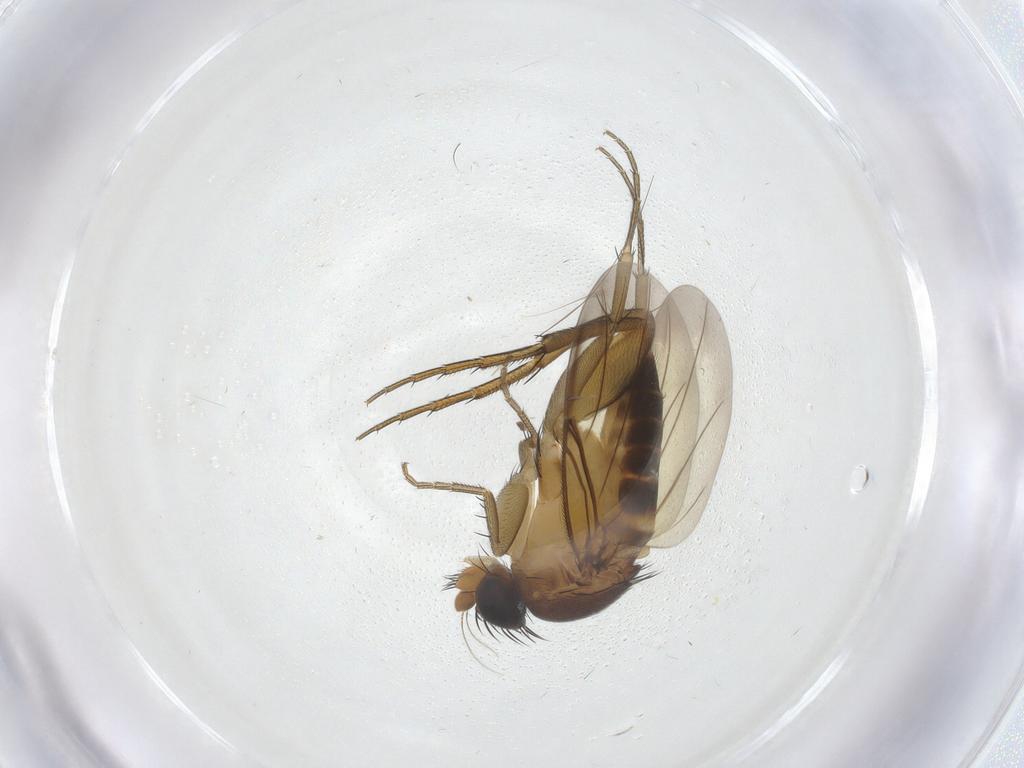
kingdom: Animalia
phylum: Arthropoda
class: Insecta
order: Diptera
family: Phoridae
